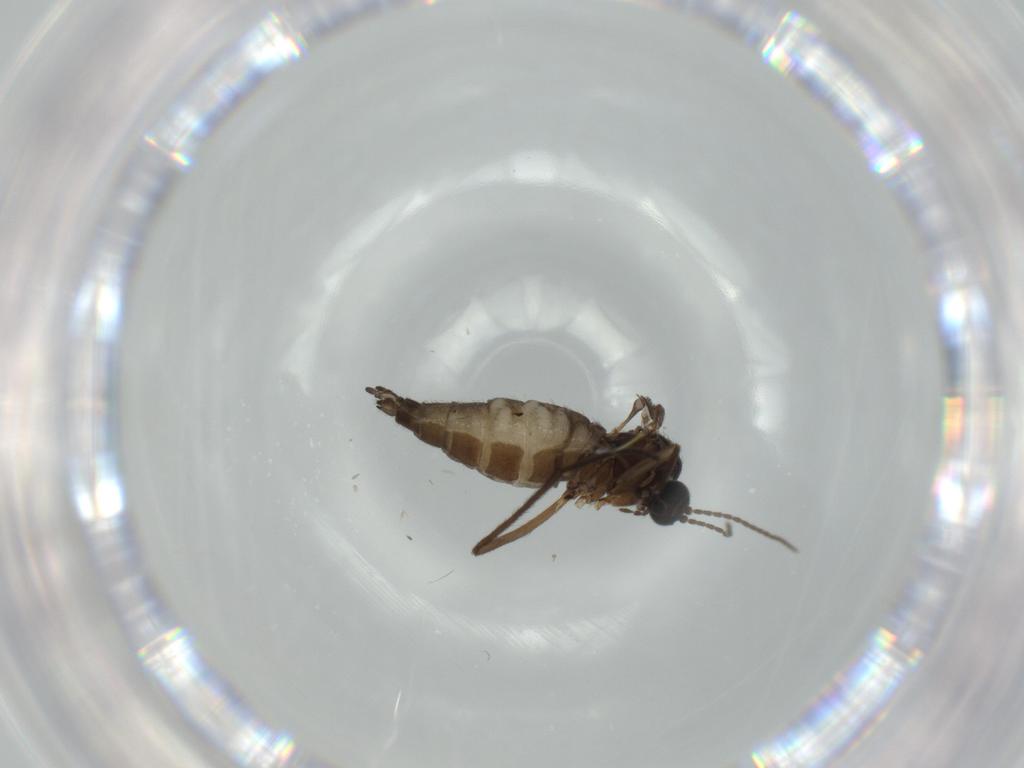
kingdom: Animalia
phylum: Arthropoda
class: Insecta
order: Diptera
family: Sciaridae
